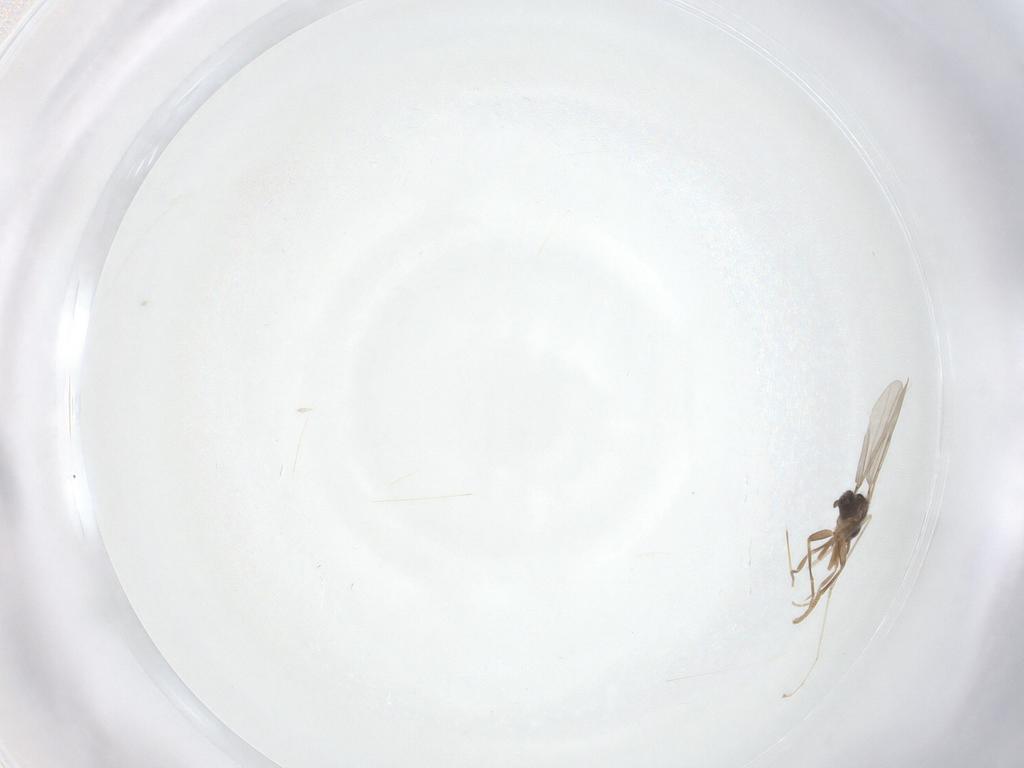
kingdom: Animalia
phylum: Arthropoda
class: Insecta
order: Diptera
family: Phoridae
